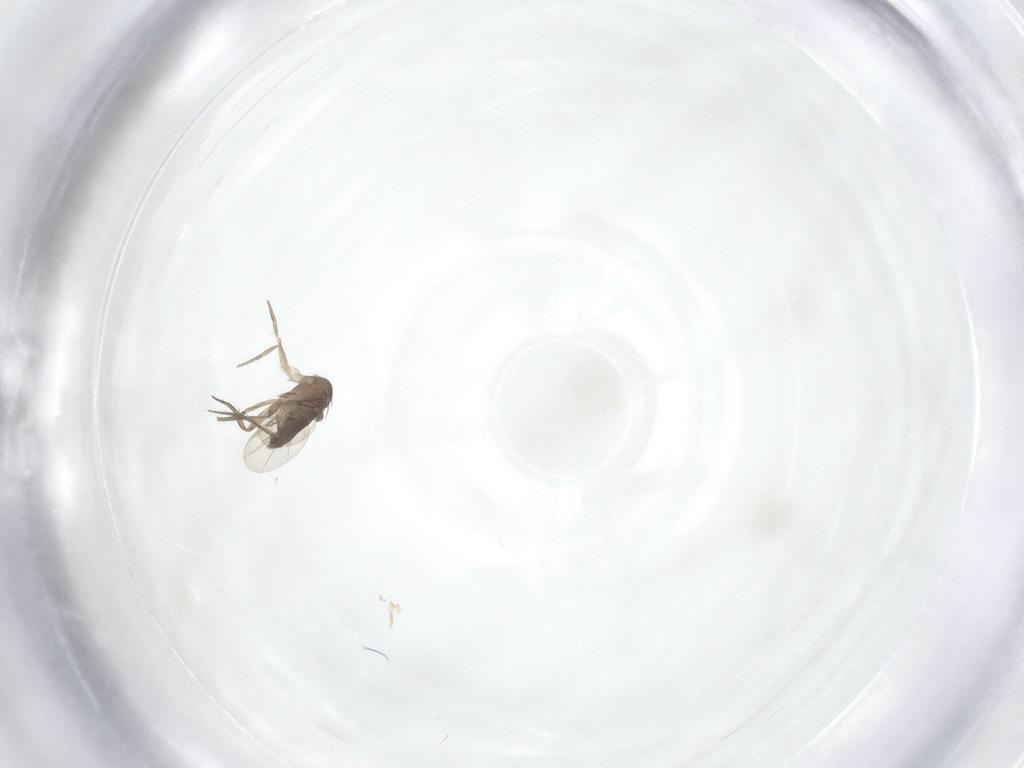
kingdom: Animalia
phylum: Arthropoda
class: Insecta
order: Diptera
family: Phoridae
